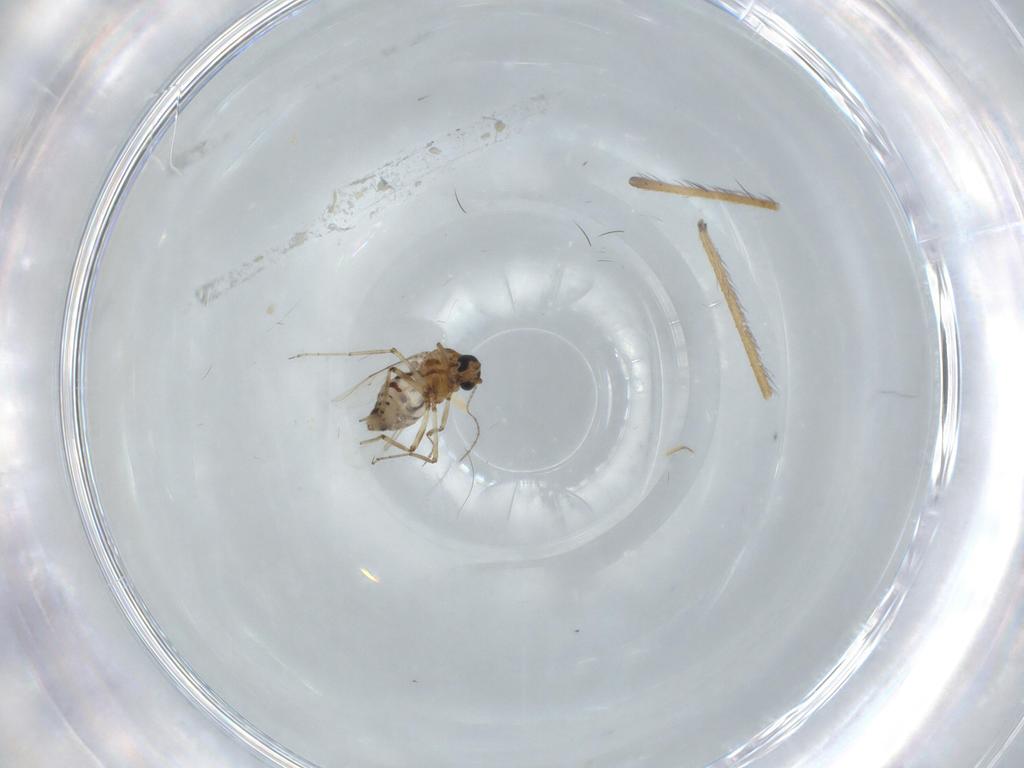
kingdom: Animalia
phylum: Arthropoda
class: Insecta
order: Diptera
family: Ceratopogonidae
